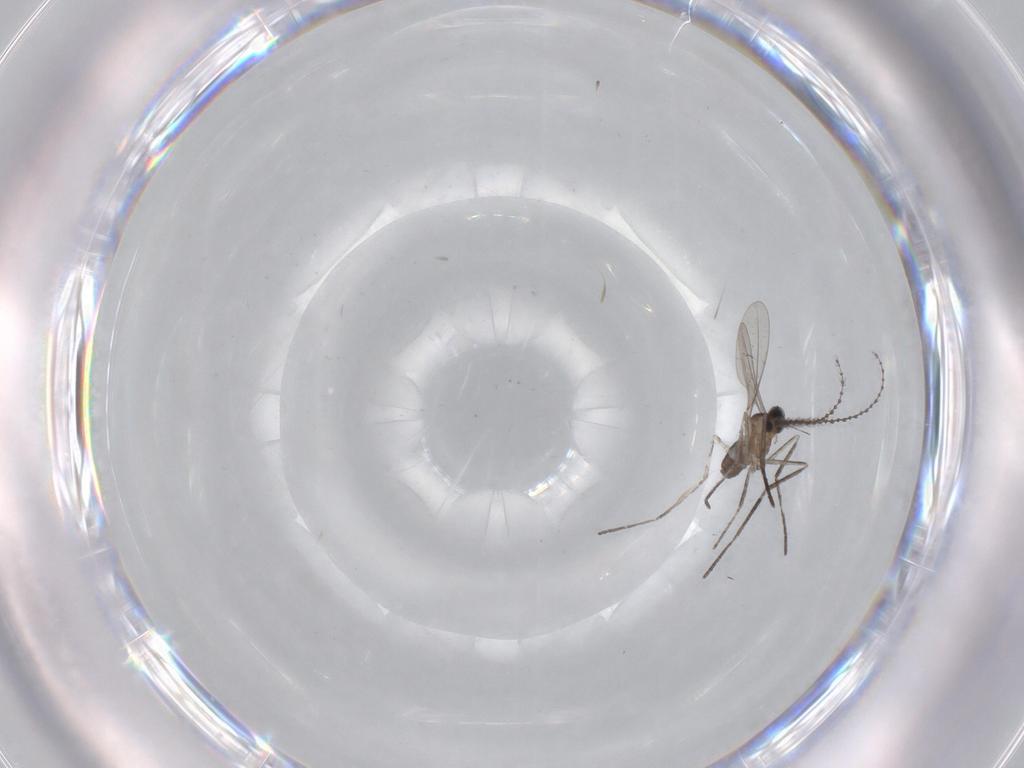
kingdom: Animalia
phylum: Arthropoda
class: Insecta
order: Diptera
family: Cecidomyiidae
